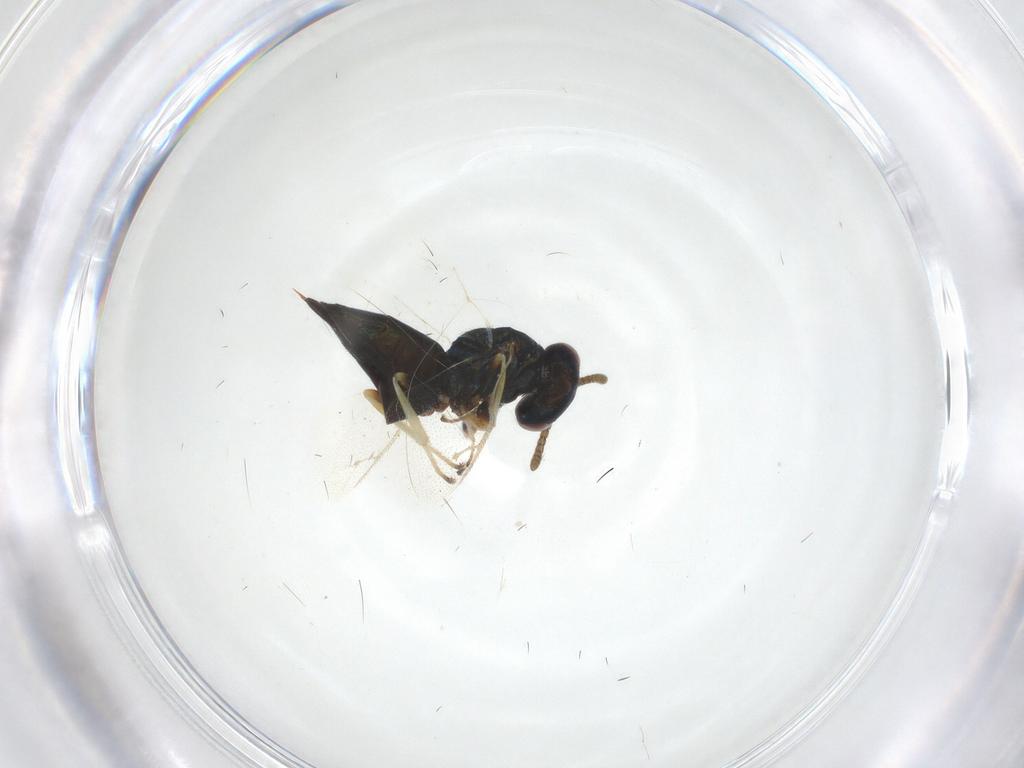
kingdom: Animalia
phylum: Arthropoda
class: Insecta
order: Hymenoptera
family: Pteromalidae
